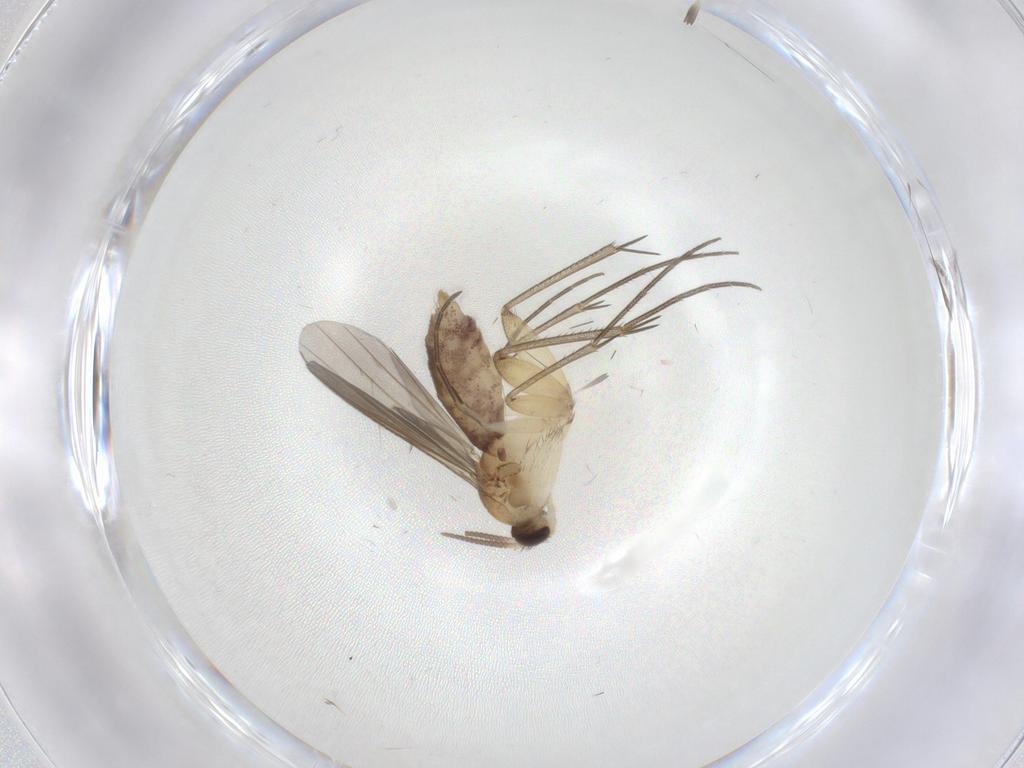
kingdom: Animalia
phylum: Arthropoda
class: Insecta
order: Diptera
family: Mycetophilidae
